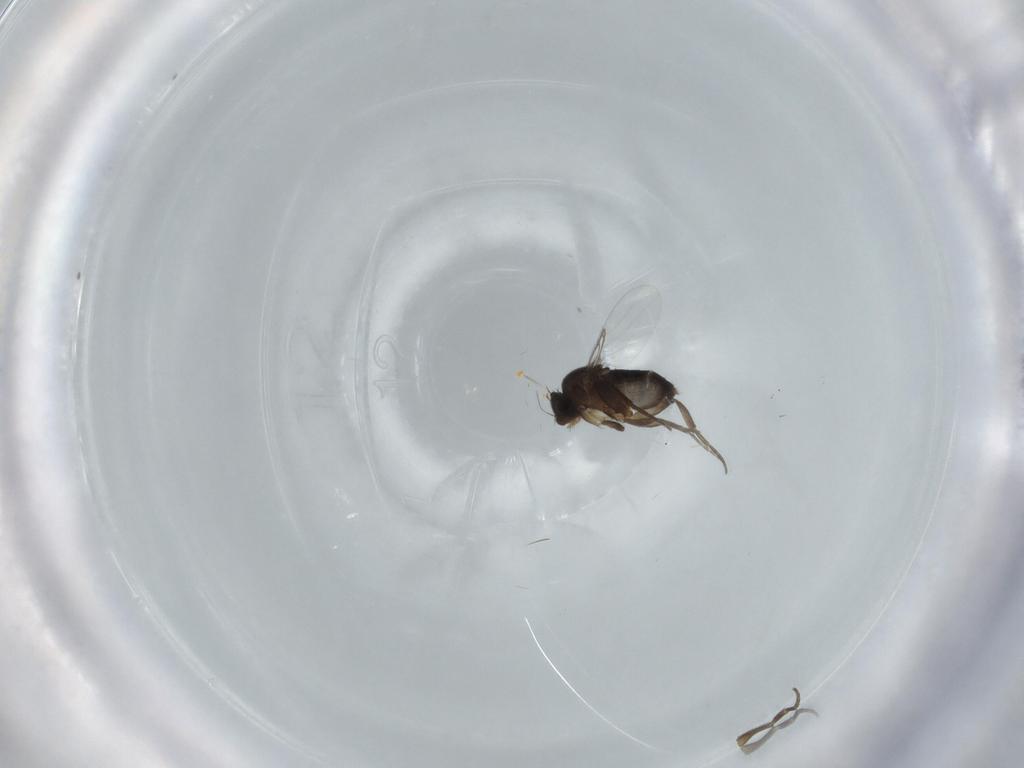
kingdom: Animalia
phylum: Arthropoda
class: Insecta
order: Diptera
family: Phoridae
